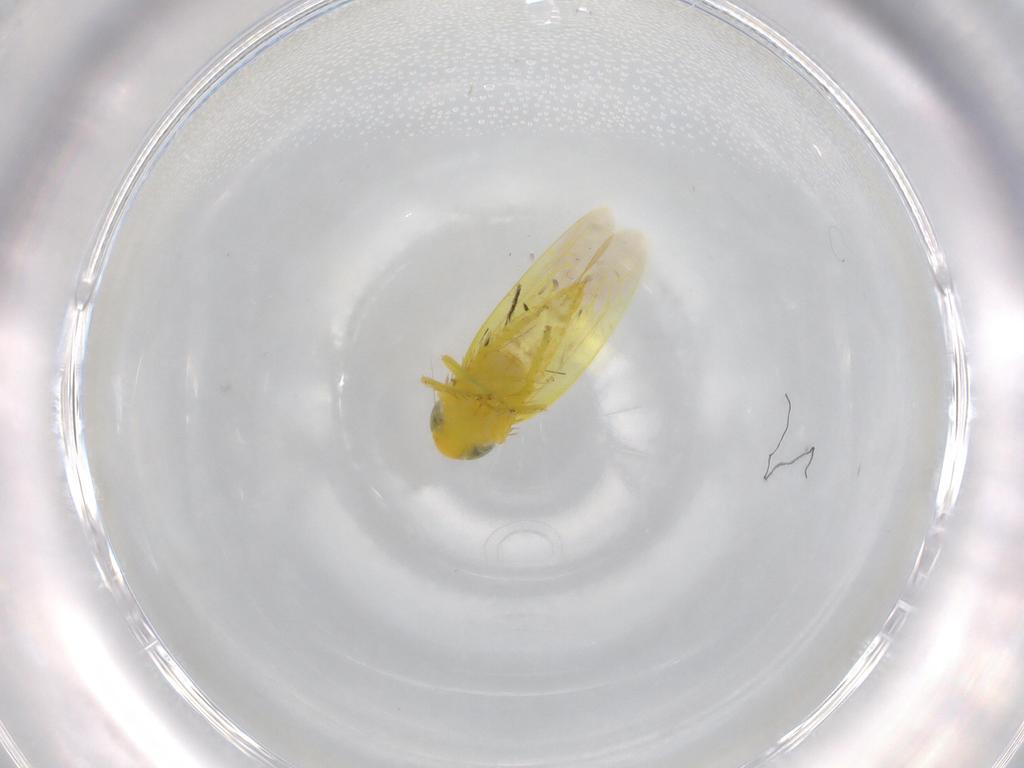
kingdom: Animalia
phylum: Arthropoda
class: Insecta
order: Hemiptera
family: Cicadellidae
